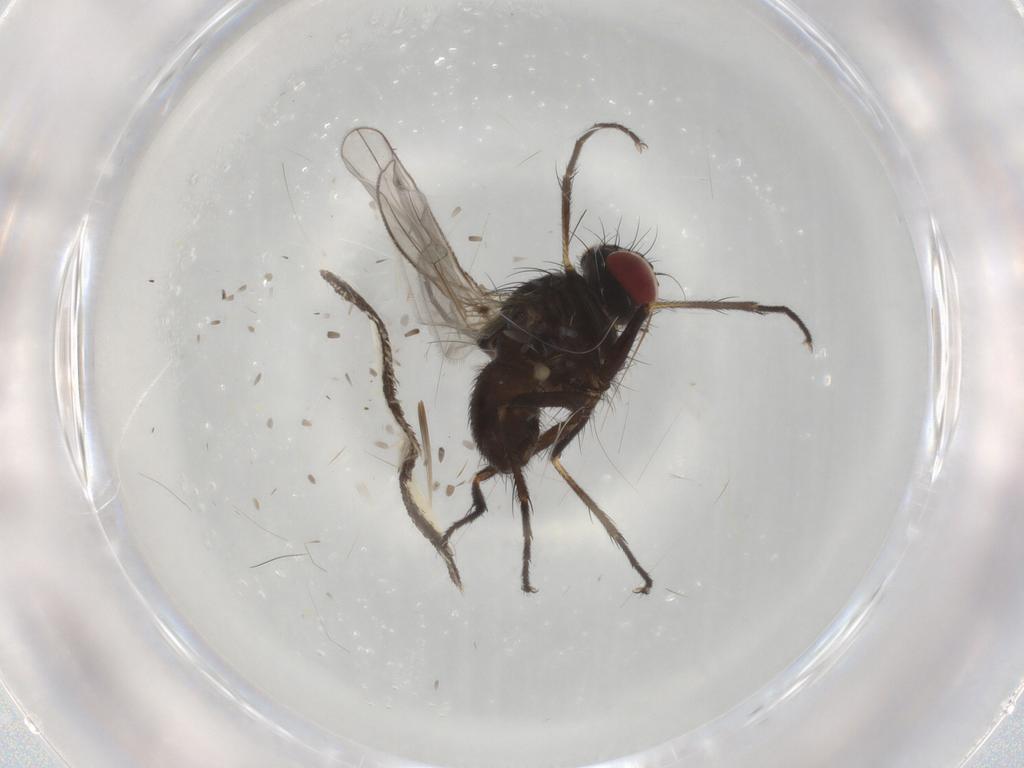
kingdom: Animalia
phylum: Arthropoda
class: Insecta
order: Diptera
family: Muscidae
